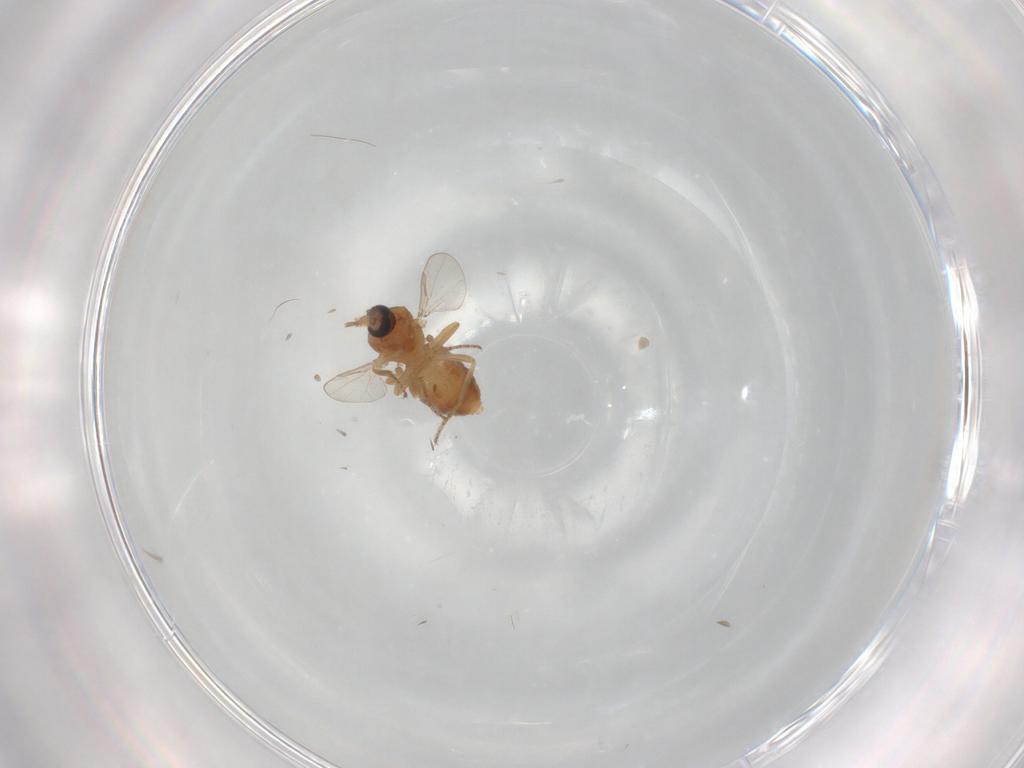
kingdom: Animalia
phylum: Arthropoda
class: Insecta
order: Diptera
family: Ceratopogonidae
